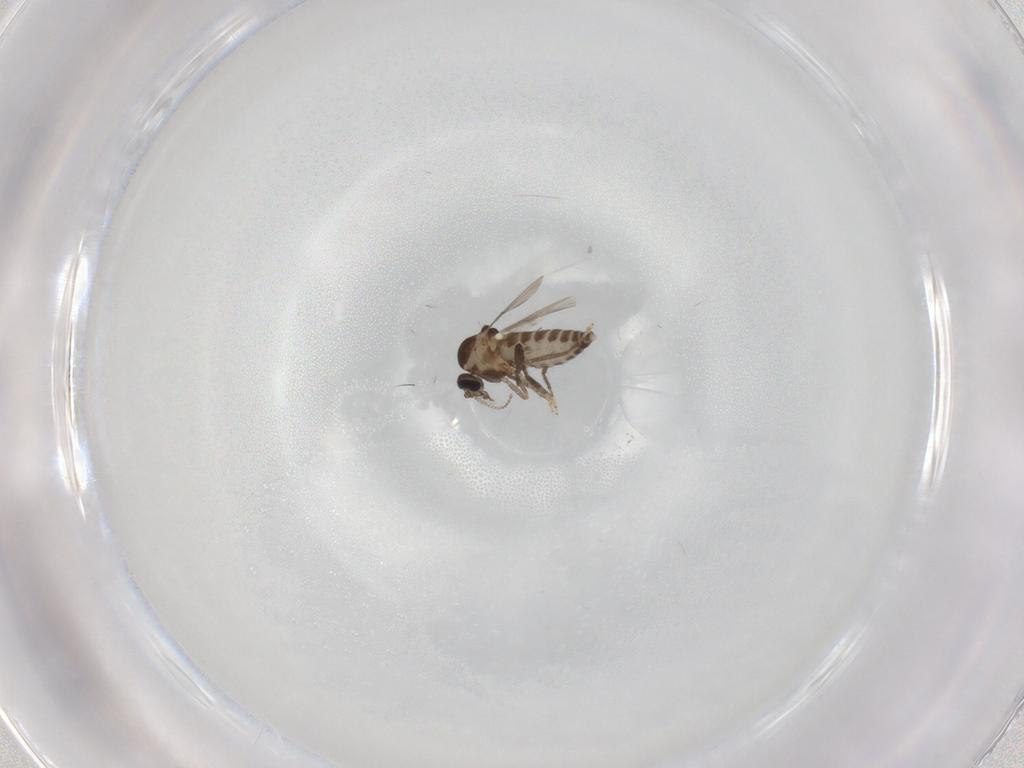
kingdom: Animalia
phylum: Arthropoda
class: Insecta
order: Diptera
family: Ceratopogonidae
